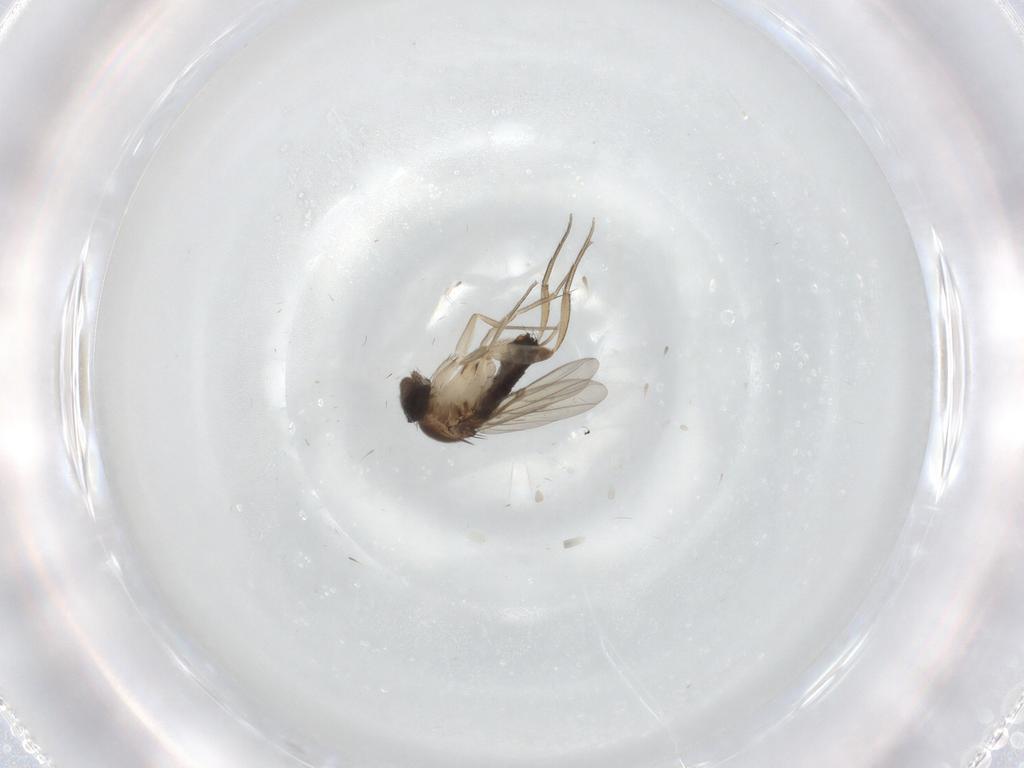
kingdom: Animalia
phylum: Arthropoda
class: Insecta
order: Diptera
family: Phoridae
